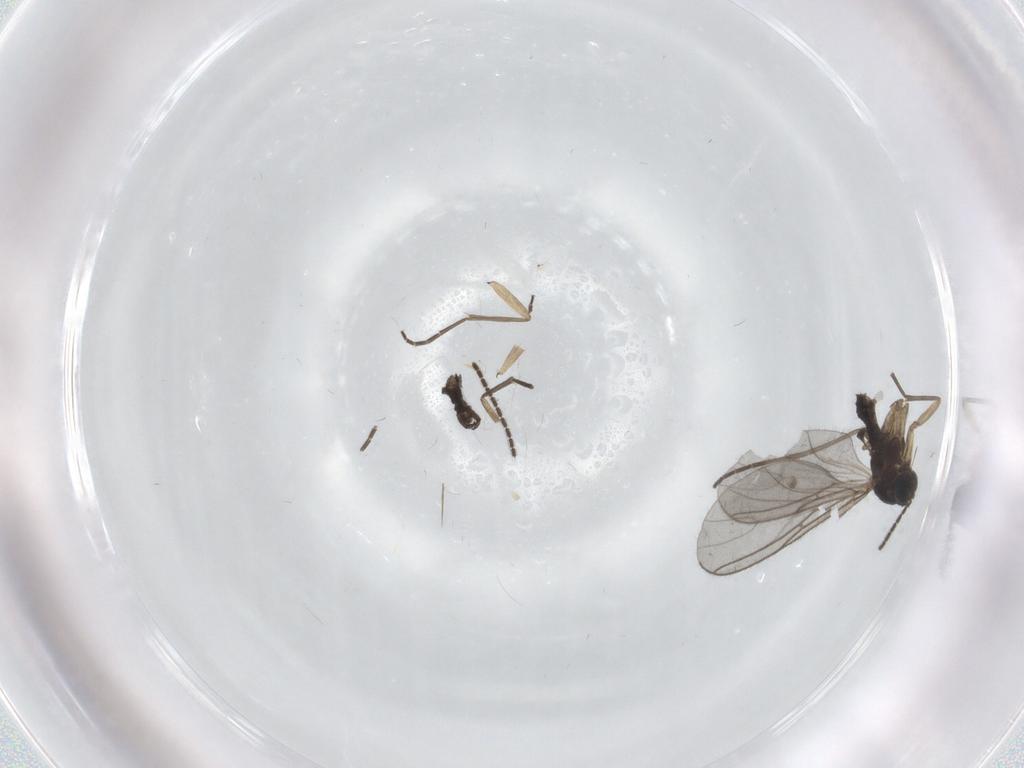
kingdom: Animalia
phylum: Arthropoda
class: Insecta
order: Diptera
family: Sciaridae
